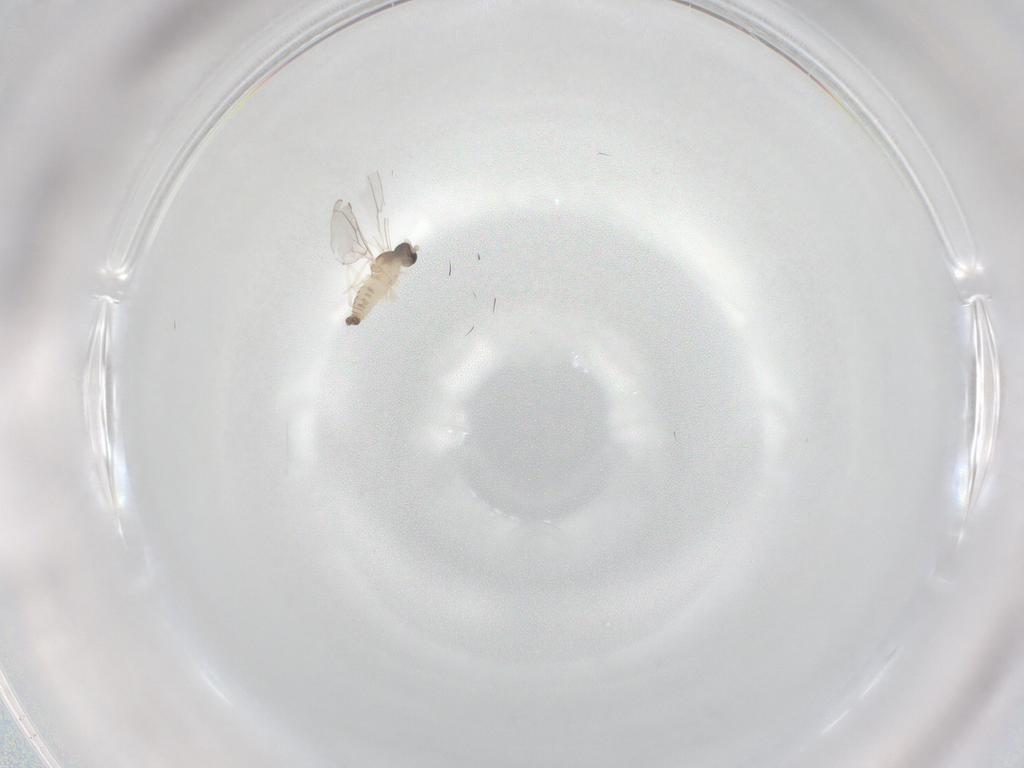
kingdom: Animalia
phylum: Arthropoda
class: Insecta
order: Diptera
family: Cecidomyiidae
